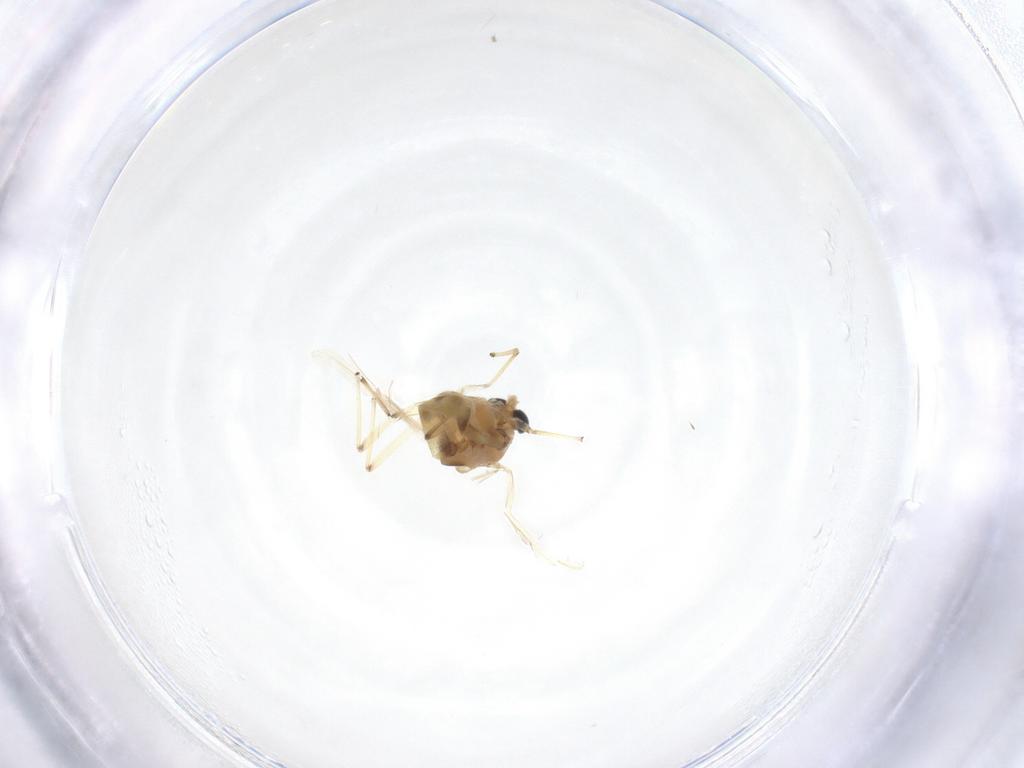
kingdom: Animalia
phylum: Arthropoda
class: Insecta
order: Diptera
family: Chironomidae
